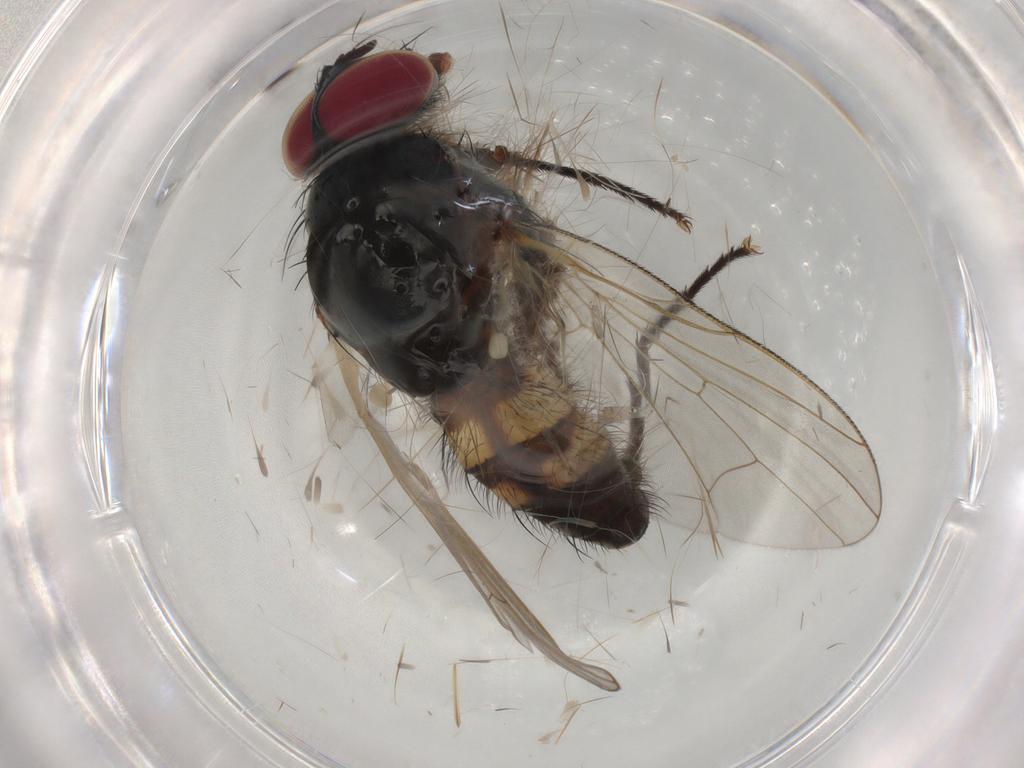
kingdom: Animalia
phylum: Arthropoda
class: Insecta
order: Diptera
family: Anthomyiidae
